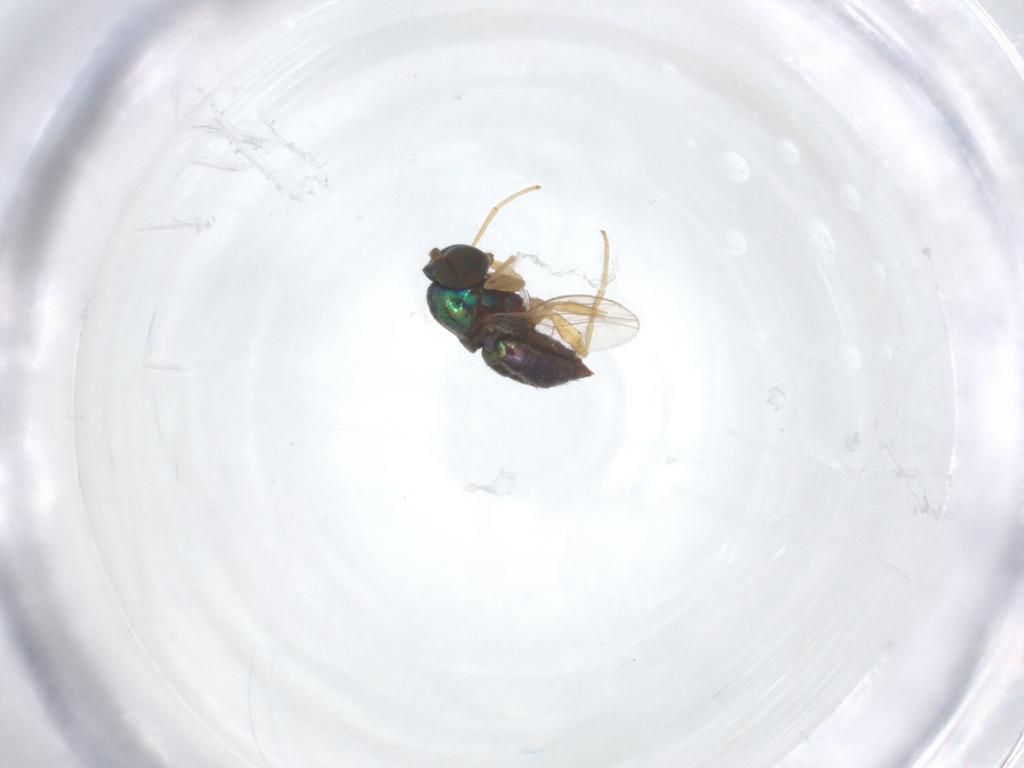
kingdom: Animalia
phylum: Arthropoda
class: Insecta
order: Diptera
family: Dolichopodidae
